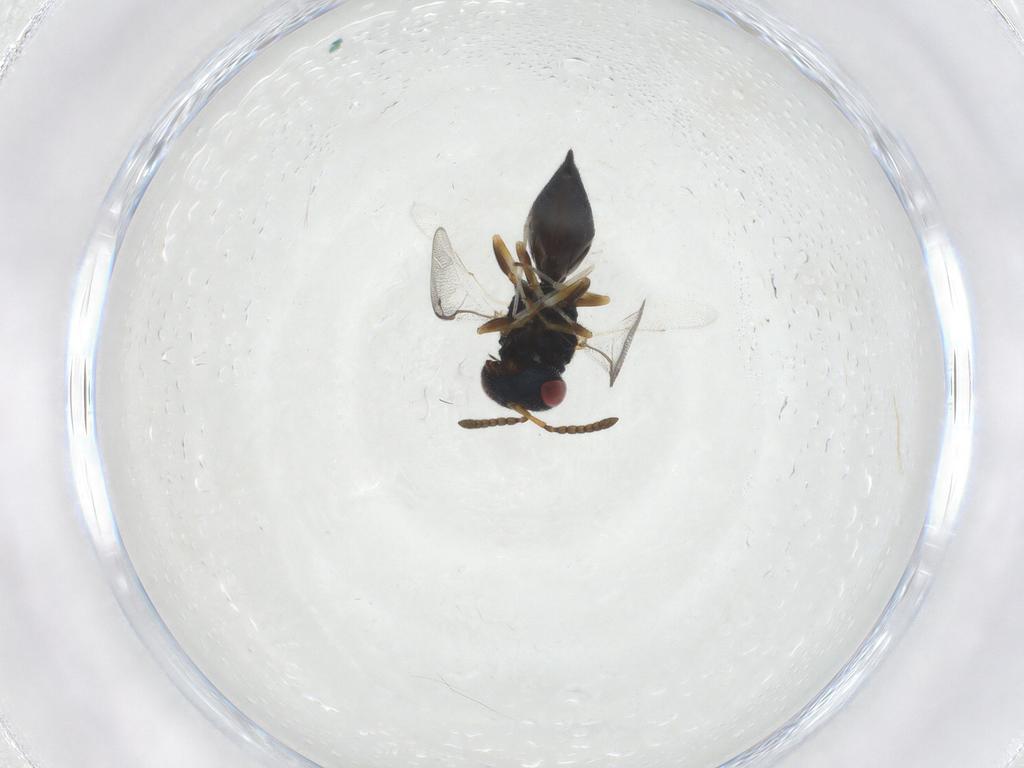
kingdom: Animalia
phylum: Arthropoda
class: Insecta
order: Hymenoptera
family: Pteromalidae
